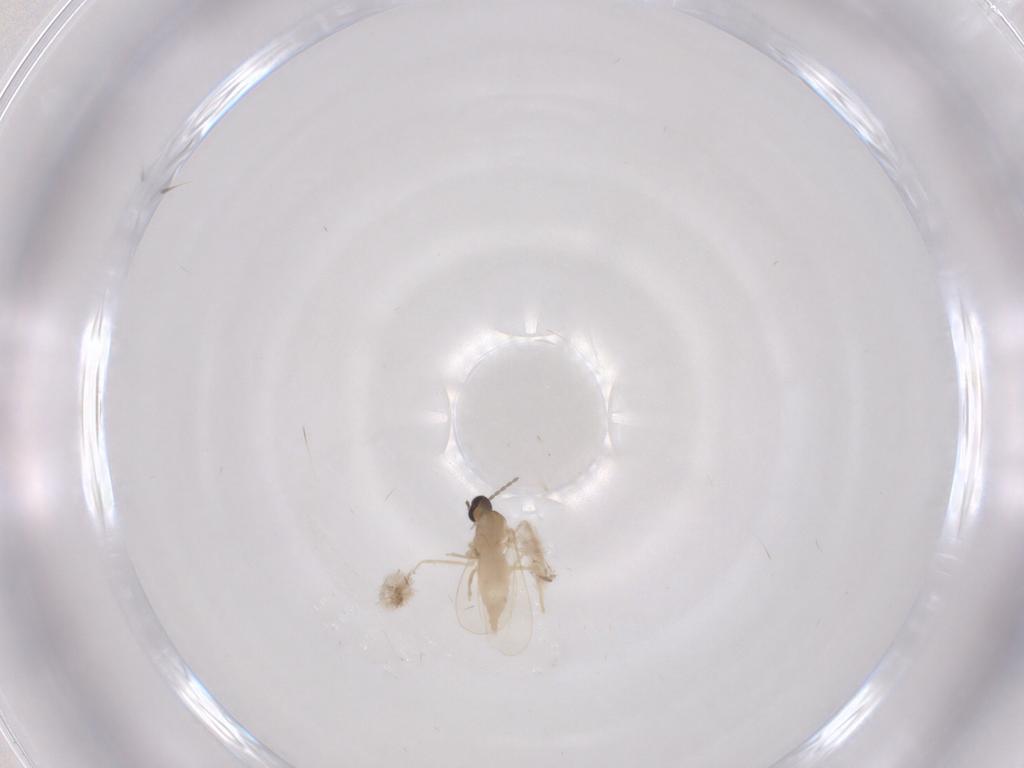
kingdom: Animalia
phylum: Arthropoda
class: Insecta
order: Diptera
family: Cecidomyiidae
